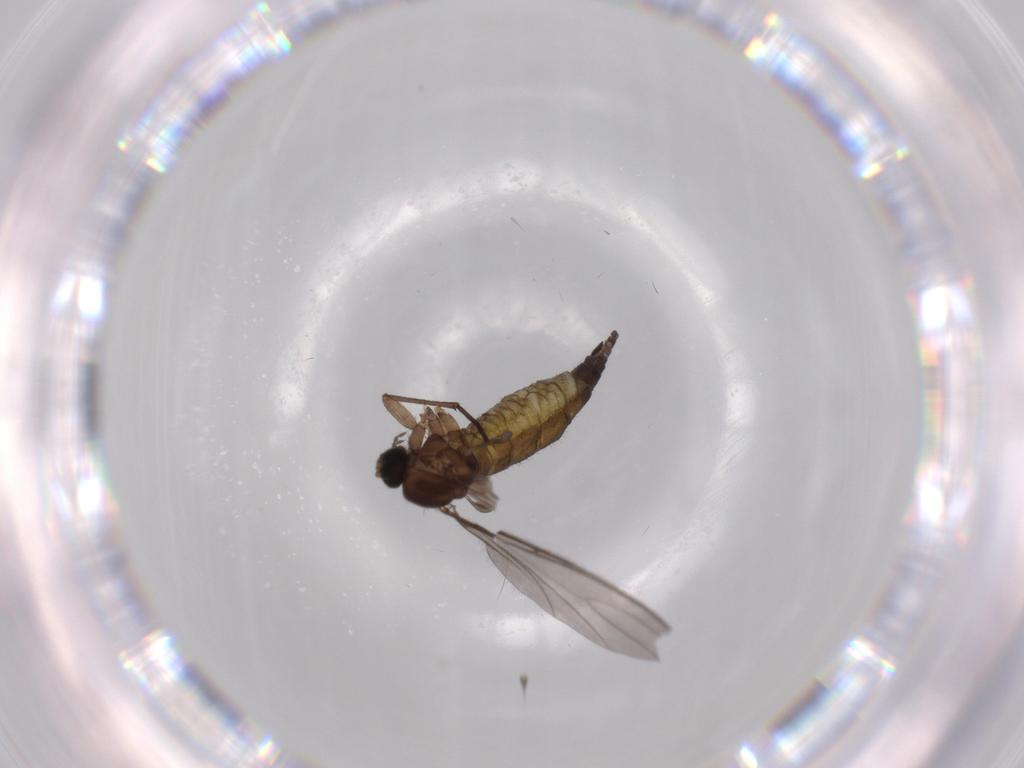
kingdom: Animalia
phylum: Arthropoda
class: Insecta
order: Diptera
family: Sciaridae
